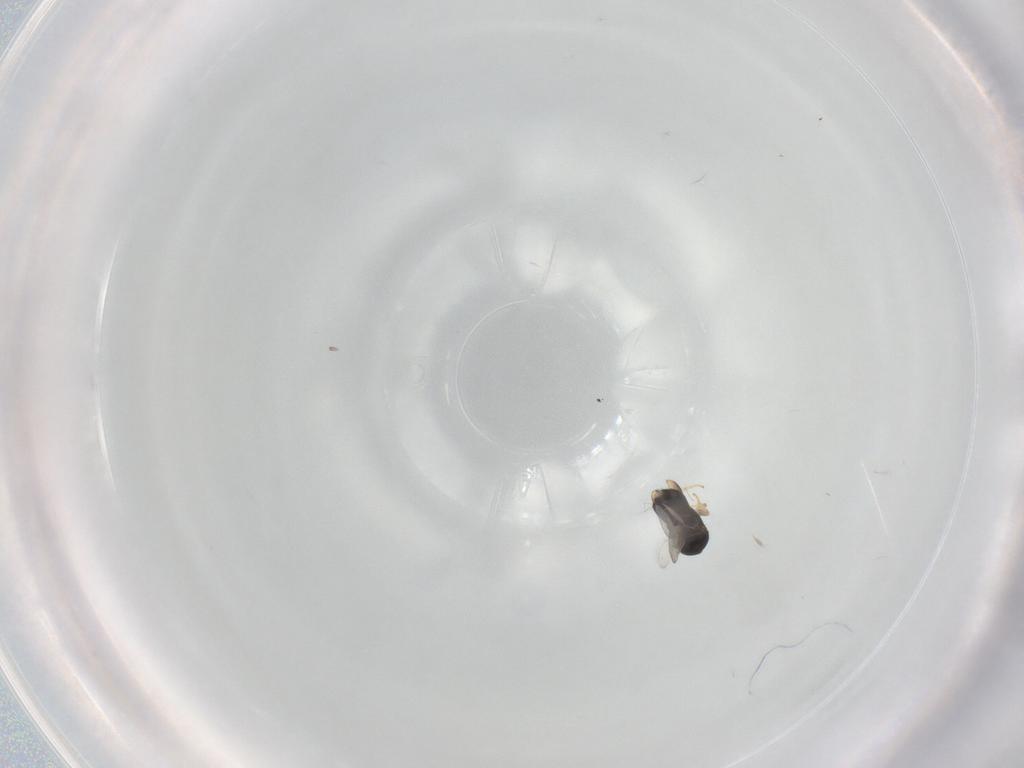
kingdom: Animalia
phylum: Arthropoda
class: Insecta
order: Hymenoptera
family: Aphelinidae
